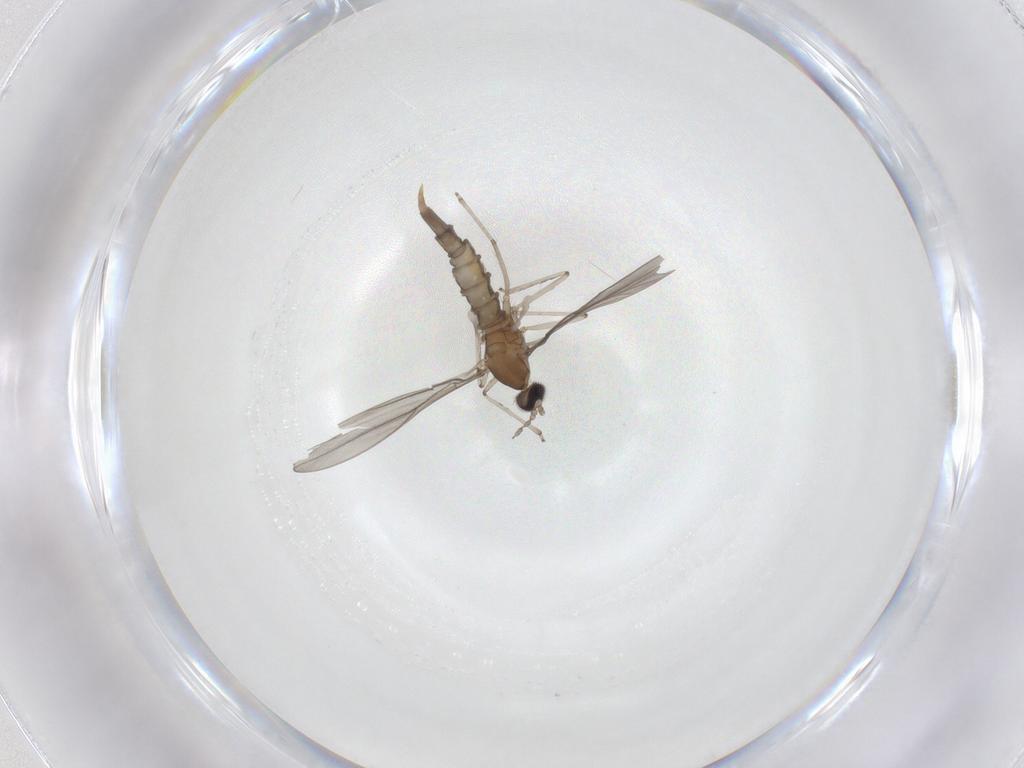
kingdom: Animalia
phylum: Arthropoda
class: Insecta
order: Diptera
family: Cecidomyiidae
